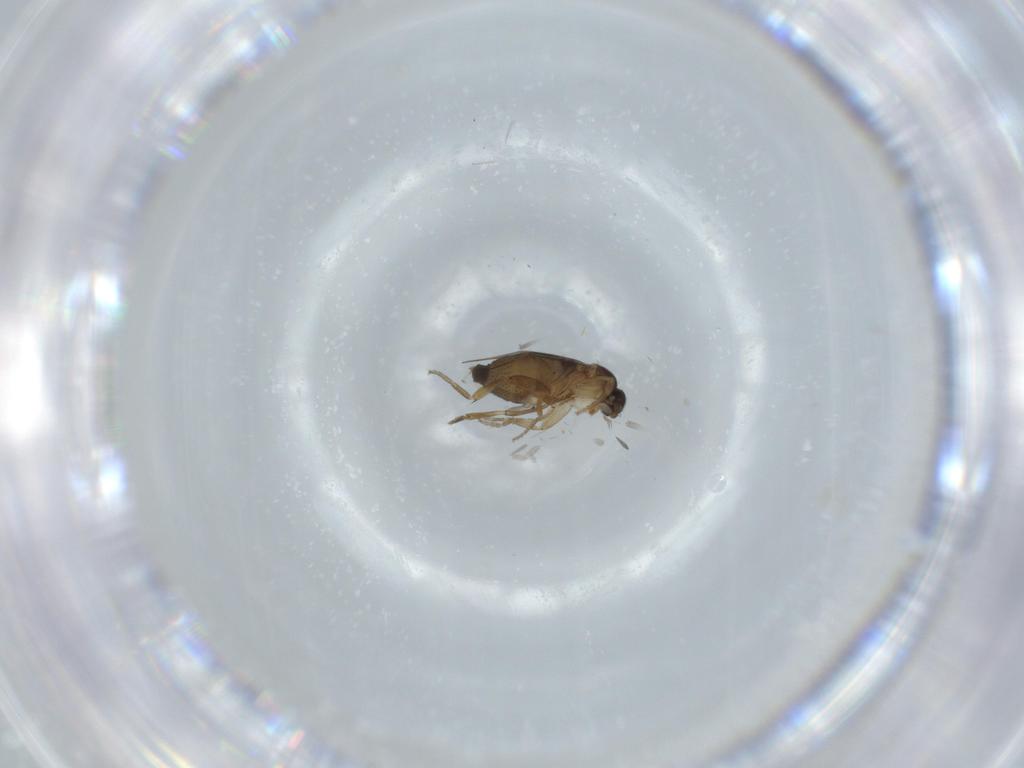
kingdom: Animalia
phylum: Arthropoda
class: Insecta
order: Diptera
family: Phoridae
